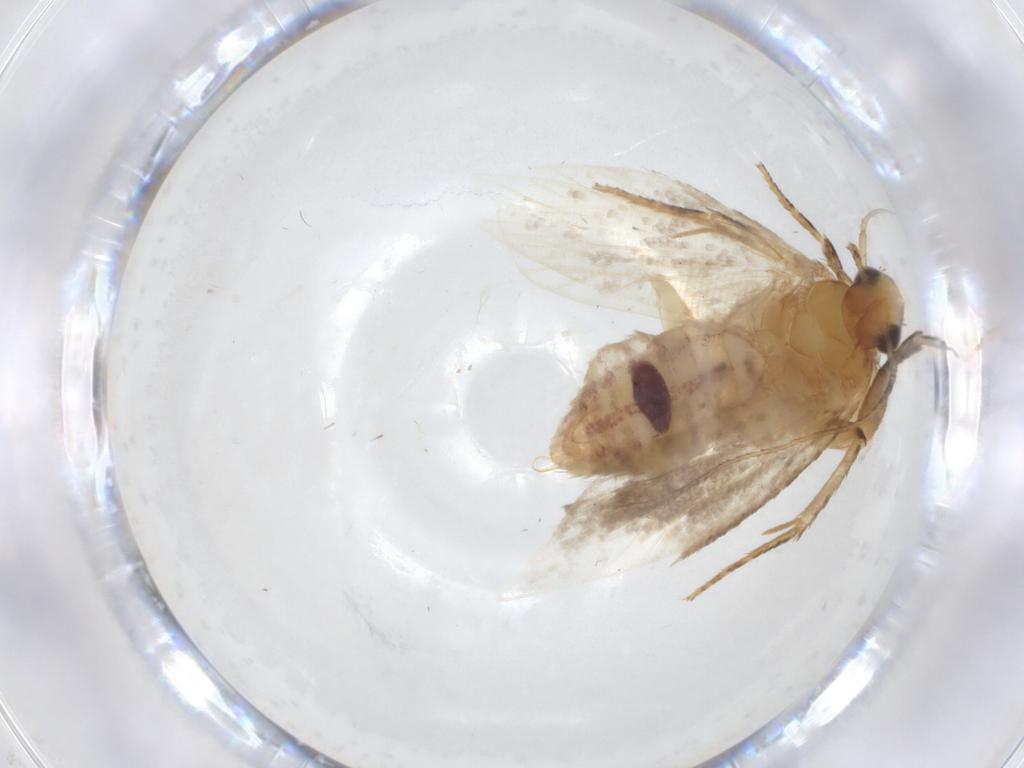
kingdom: Animalia
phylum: Arthropoda
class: Insecta
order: Lepidoptera
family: Gelechiidae
